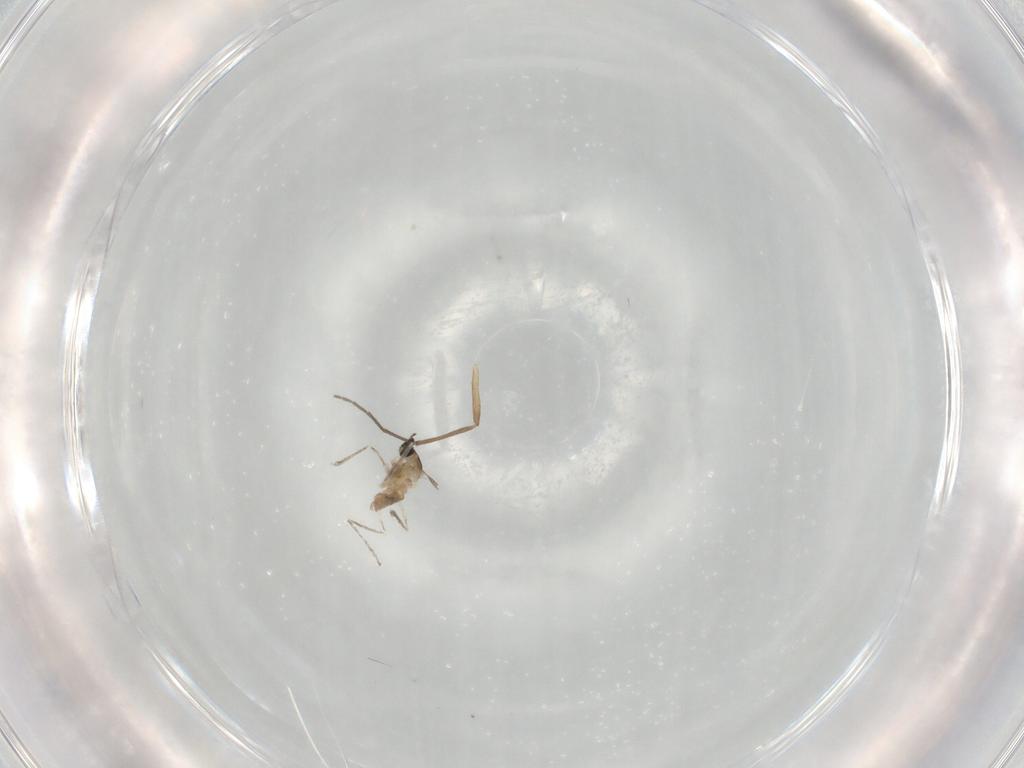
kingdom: Animalia
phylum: Arthropoda
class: Insecta
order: Diptera
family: Cecidomyiidae
